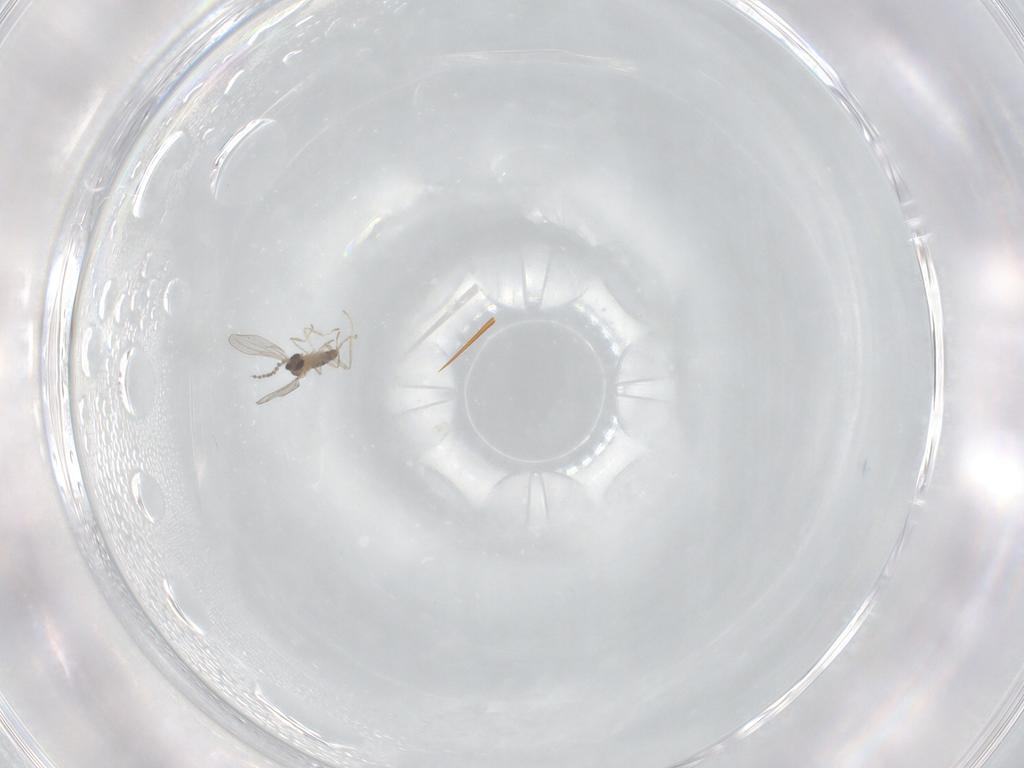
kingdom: Animalia
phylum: Arthropoda
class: Insecta
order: Diptera
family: Cecidomyiidae
